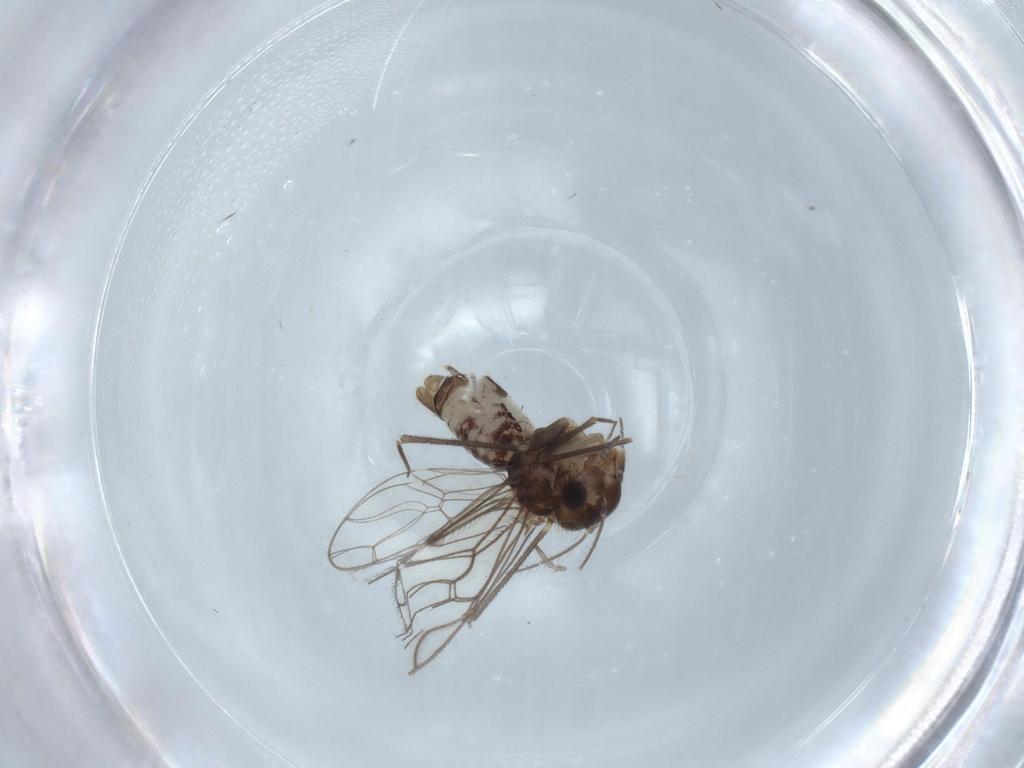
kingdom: Animalia
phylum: Arthropoda
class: Insecta
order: Psocodea
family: Epipsocidae
